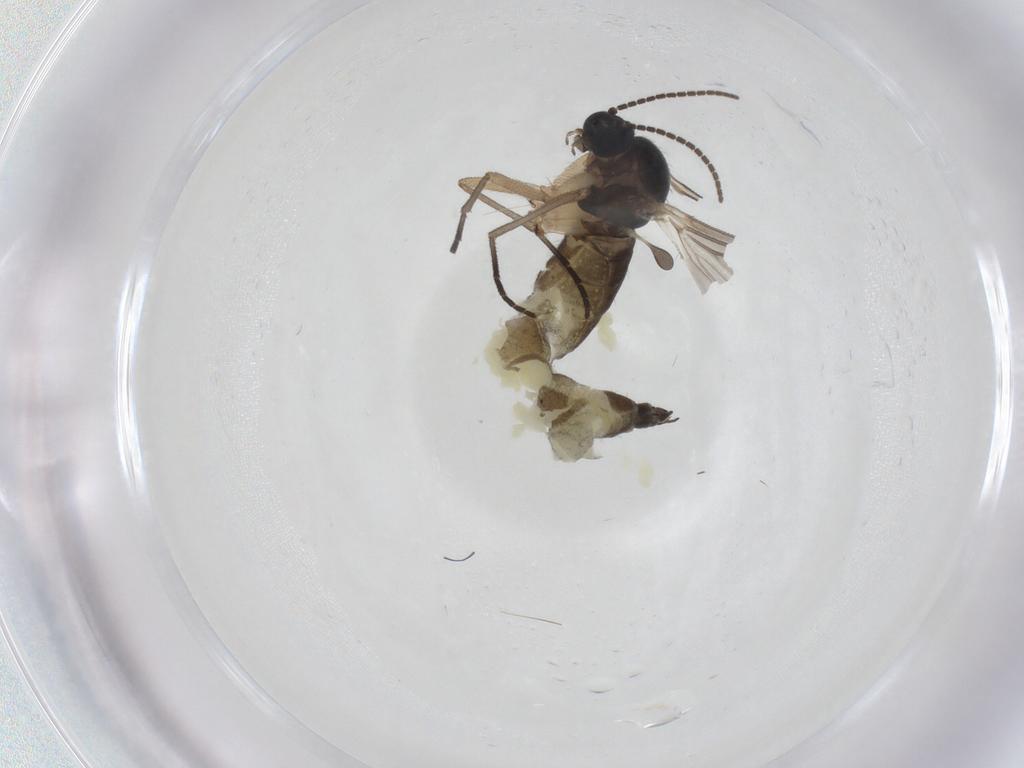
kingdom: Animalia
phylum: Arthropoda
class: Insecta
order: Diptera
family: Sciaridae
